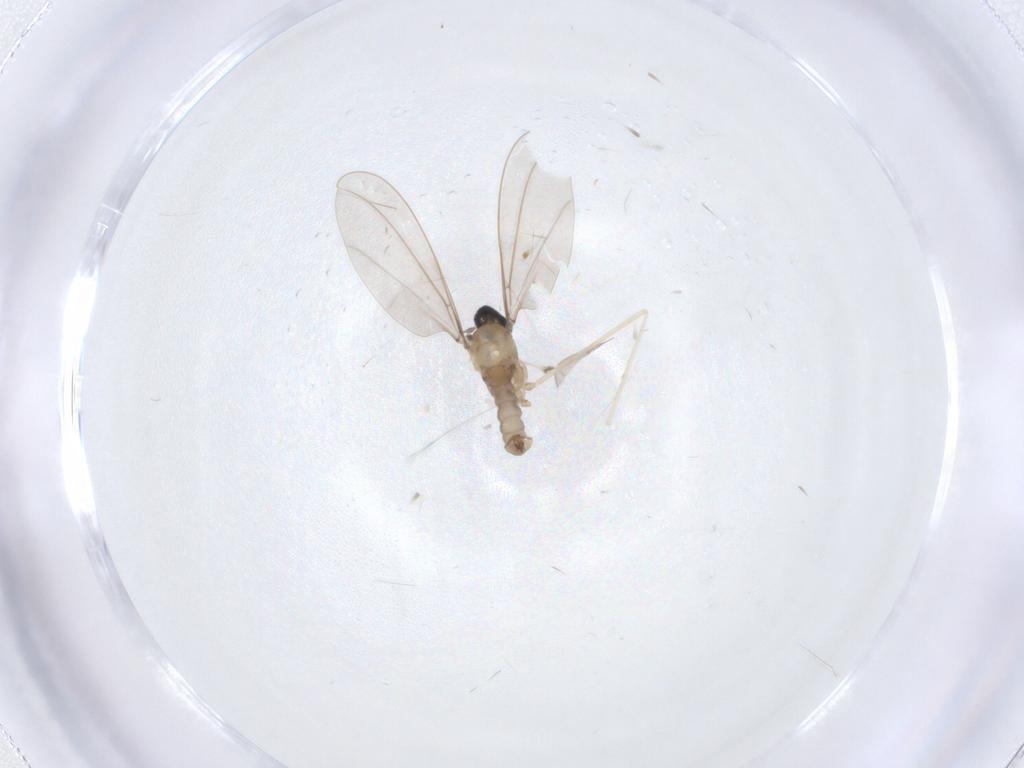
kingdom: Animalia
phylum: Arthropoda
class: Insecta
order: Diptera
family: Cecidomyiidae
